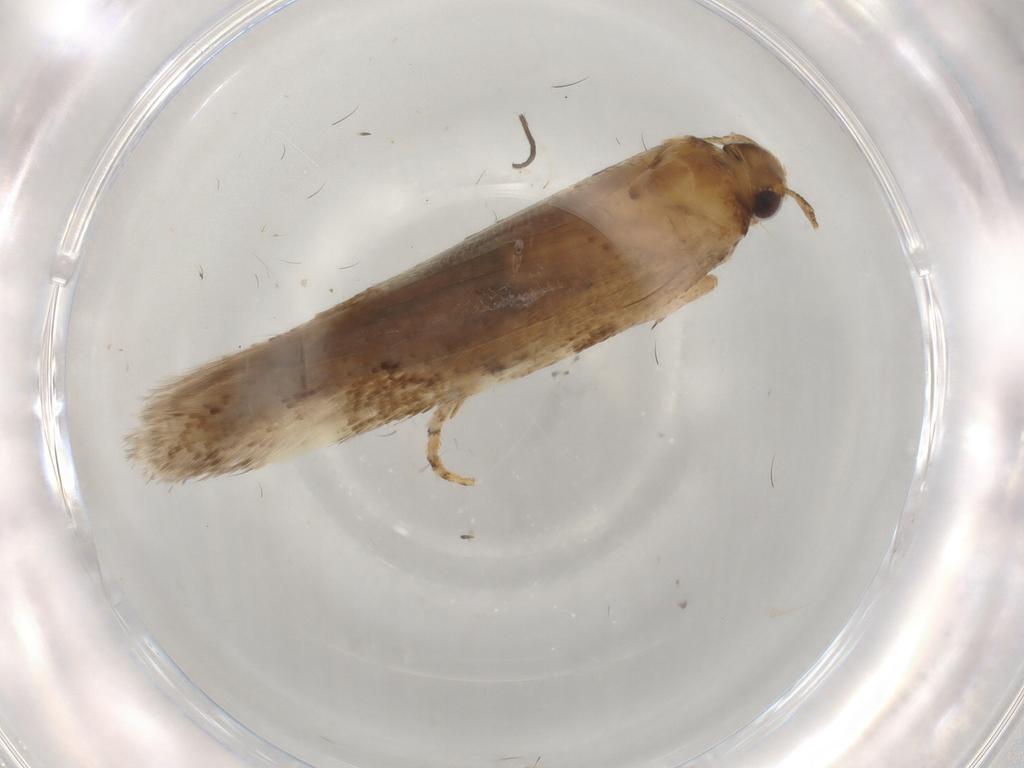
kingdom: Animalia
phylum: Arthropoda
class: Insecta
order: Lepidoptera
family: Gelechiidae
